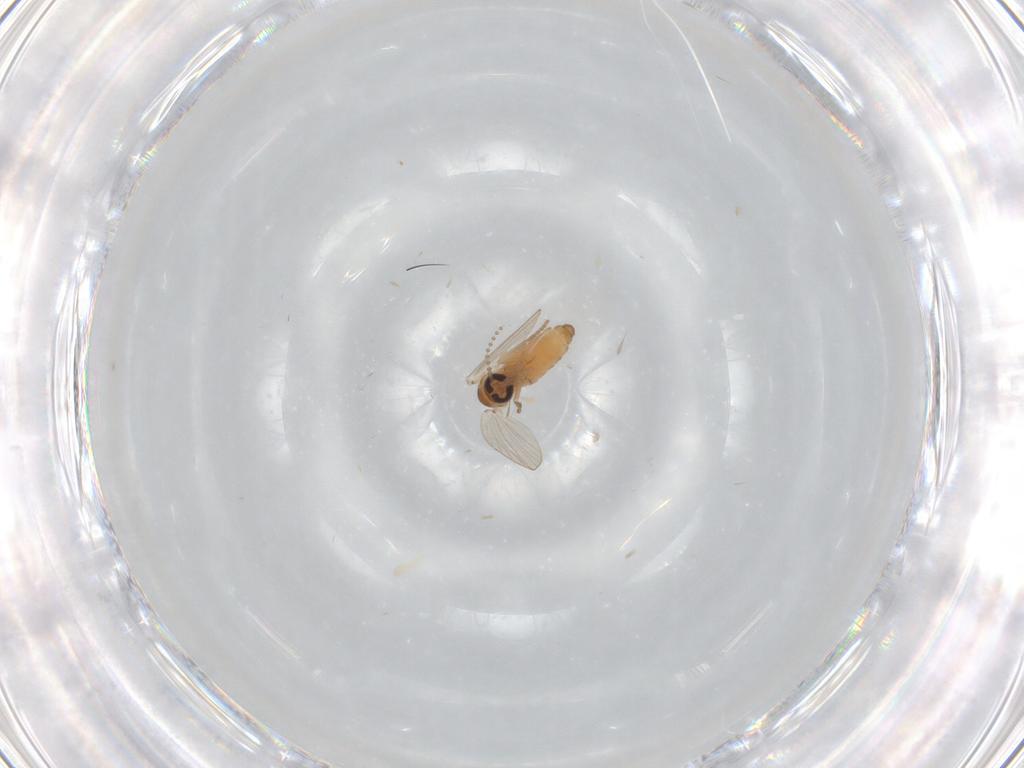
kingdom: Animalia
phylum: Arthropoda
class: Insecta
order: Diptera
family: Psychodidae
